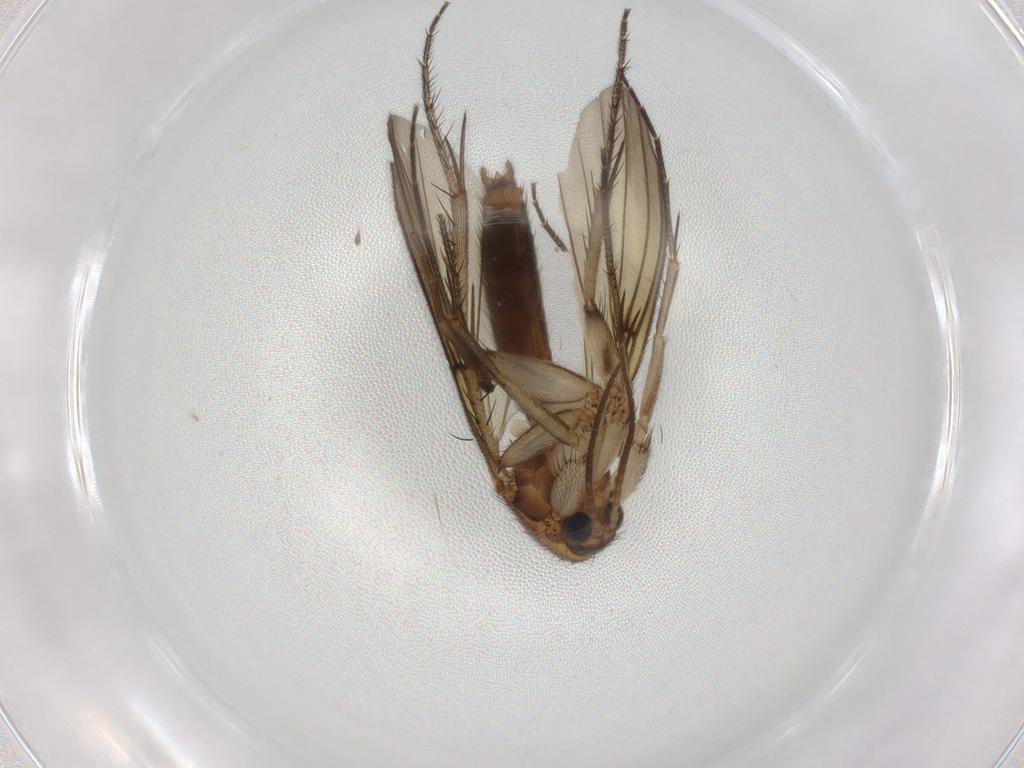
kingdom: Animalia
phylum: Arthropoda
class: Insecta
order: Diptera
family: Mycetophilidae
